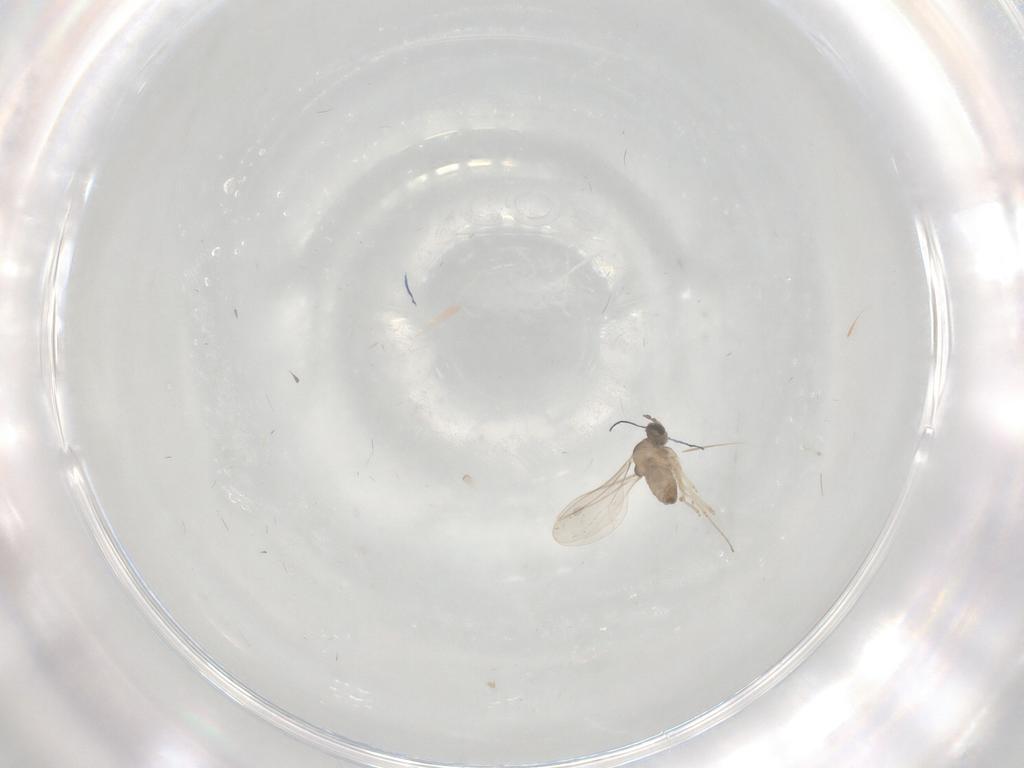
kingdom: Animalia
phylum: Arthropoda
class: Insecta
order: Diptera
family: Cecidomyiidae
